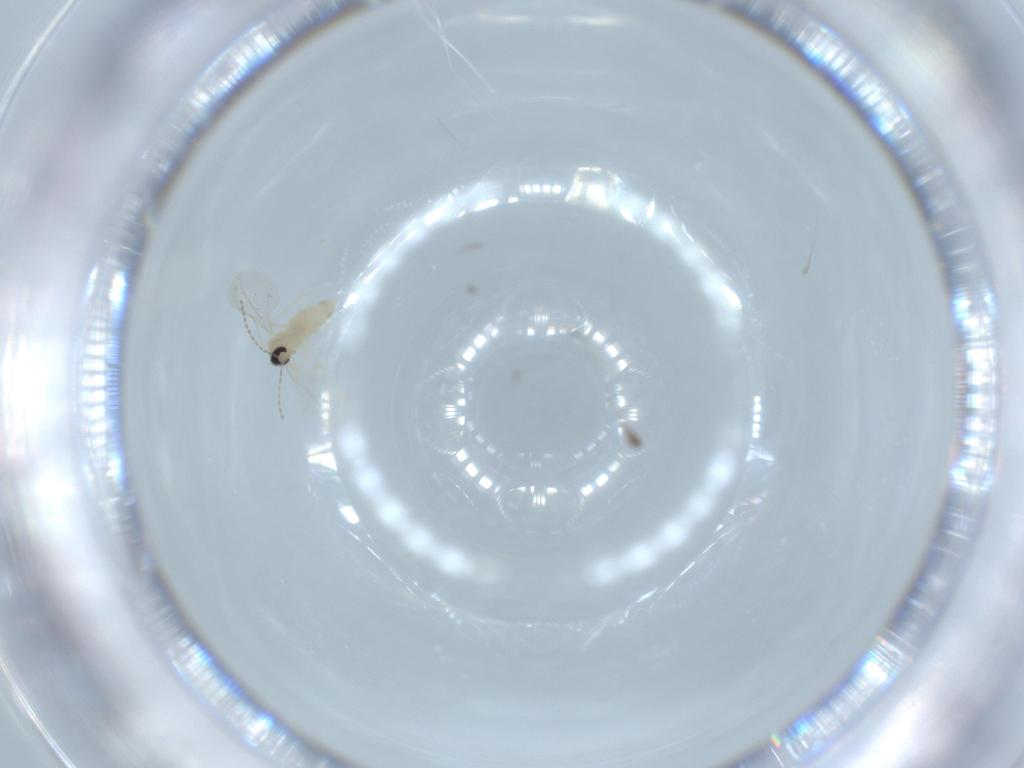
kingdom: Animalia
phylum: Arthropoda
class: Insecta
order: Diptera
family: Cecidomyiidae
